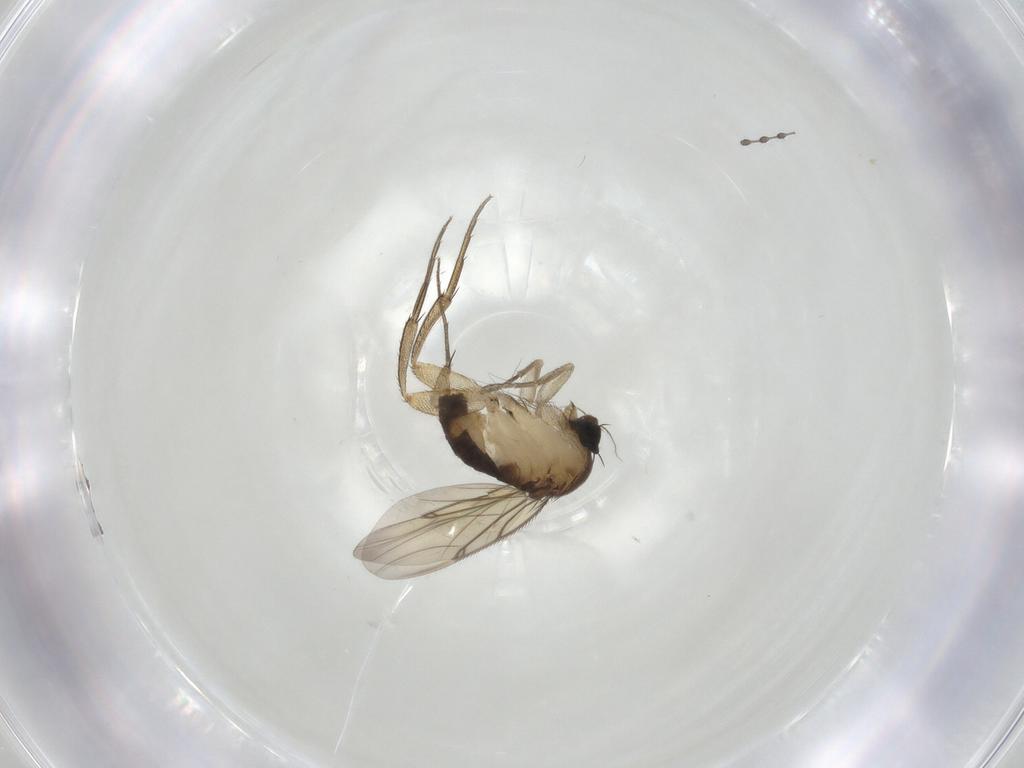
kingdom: Animalia
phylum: Arthropoda
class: Insecta
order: Diptera
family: Cecidomyiidae
